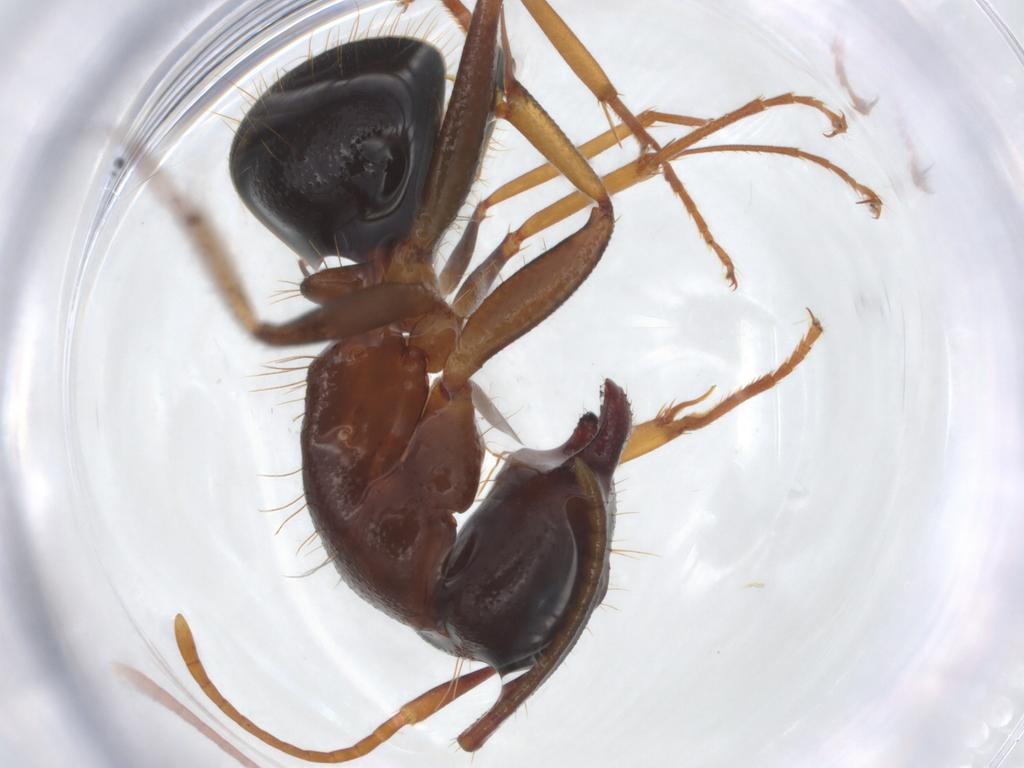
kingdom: Animalia
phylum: Arthropoda
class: Insecta
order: Hymenoptera
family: Formicidae
